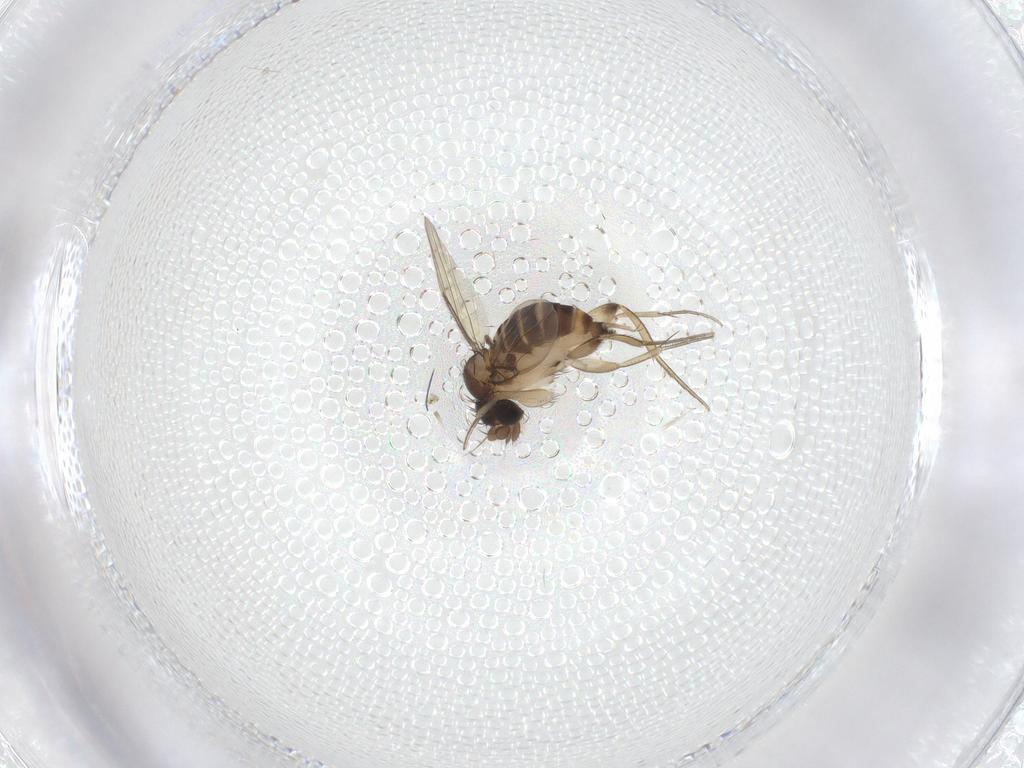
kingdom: Animalia
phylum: Arthropoda
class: Insecta
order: Diptera
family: Phoridae
